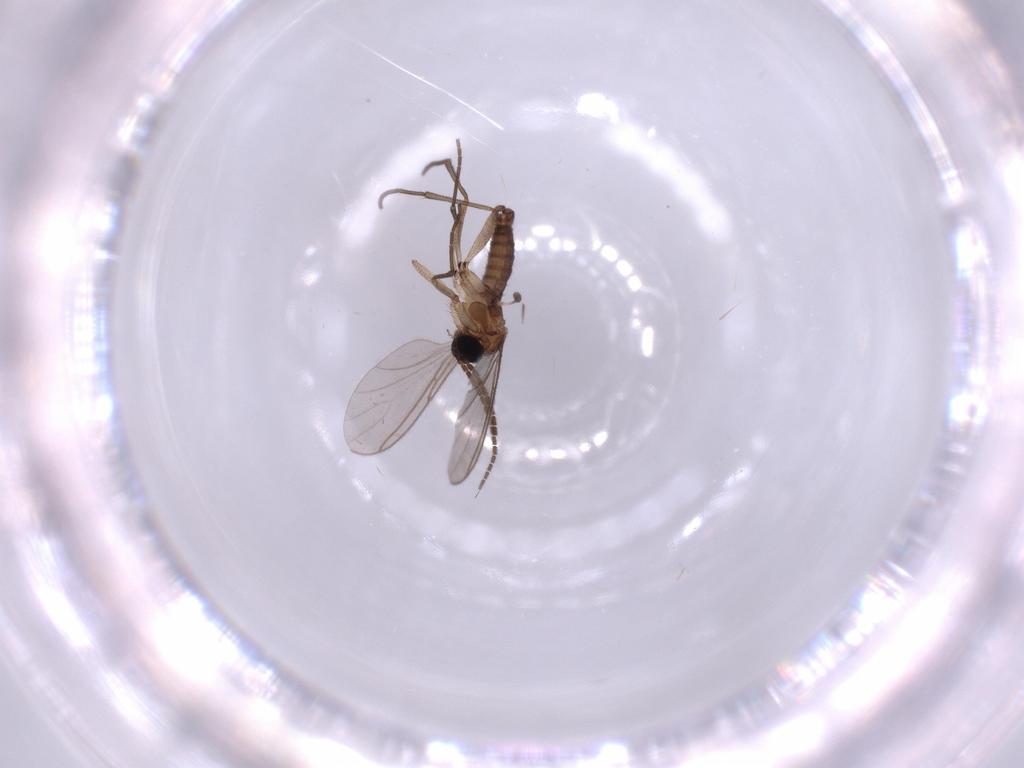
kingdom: Animalia
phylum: Arthropoda
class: Insecta
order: Diptera
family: Sciaridae
